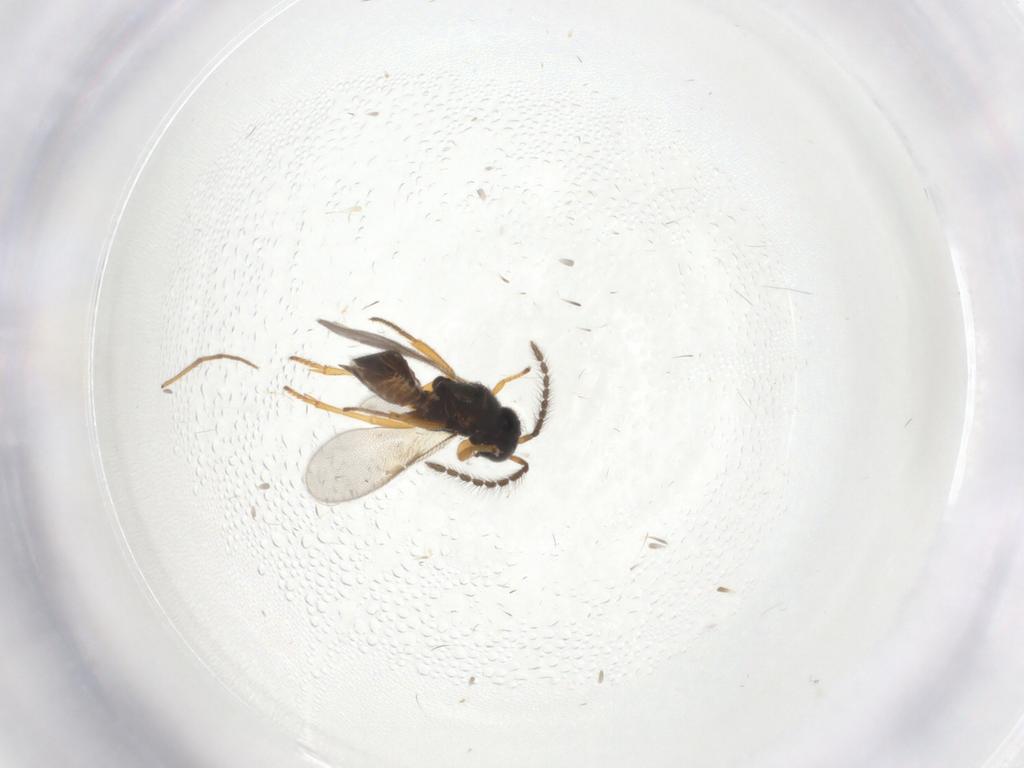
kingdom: Animalia
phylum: Arthropoda
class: Insecta
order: Hymenoptera
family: Diapriidae
